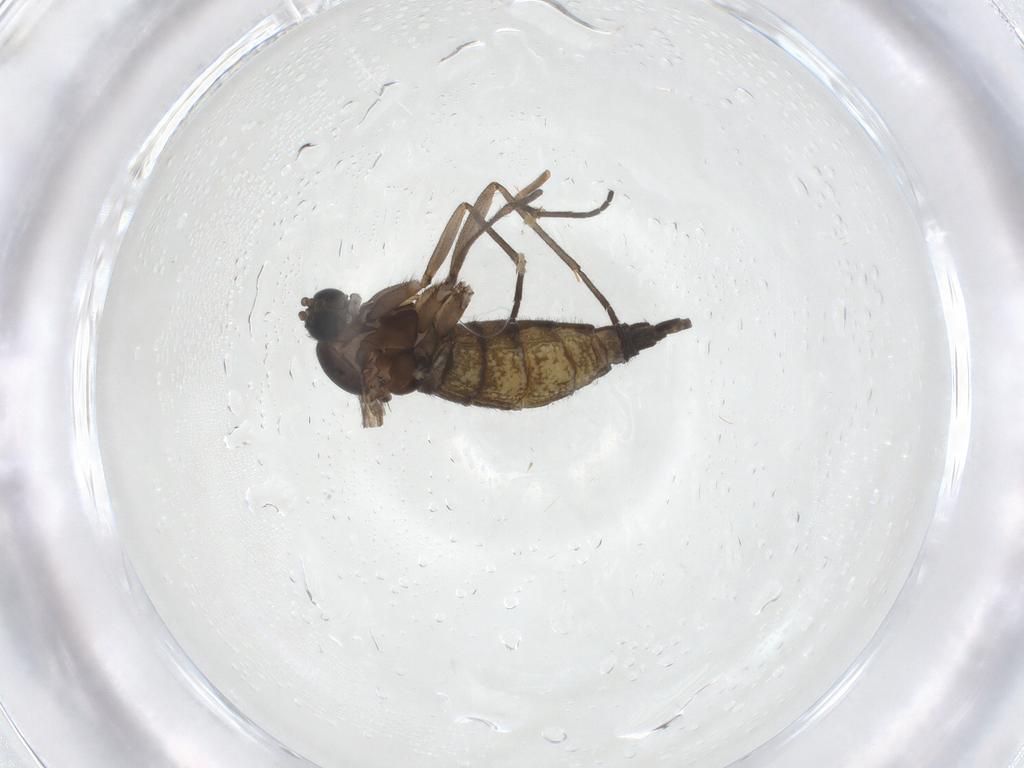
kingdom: Animalia
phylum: Arthropoda
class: Insecta
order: Diptera
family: Sciaridae
